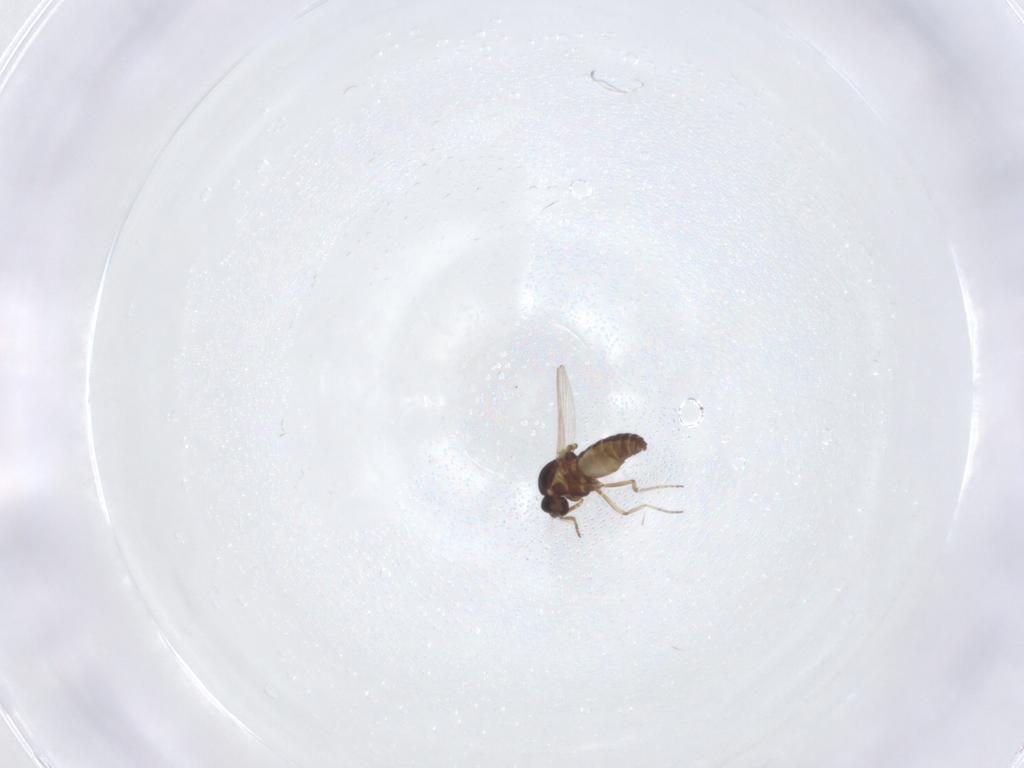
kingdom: Animalia
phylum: Arthropoda
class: Insecta
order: Diptera
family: Ceratopogonidae
